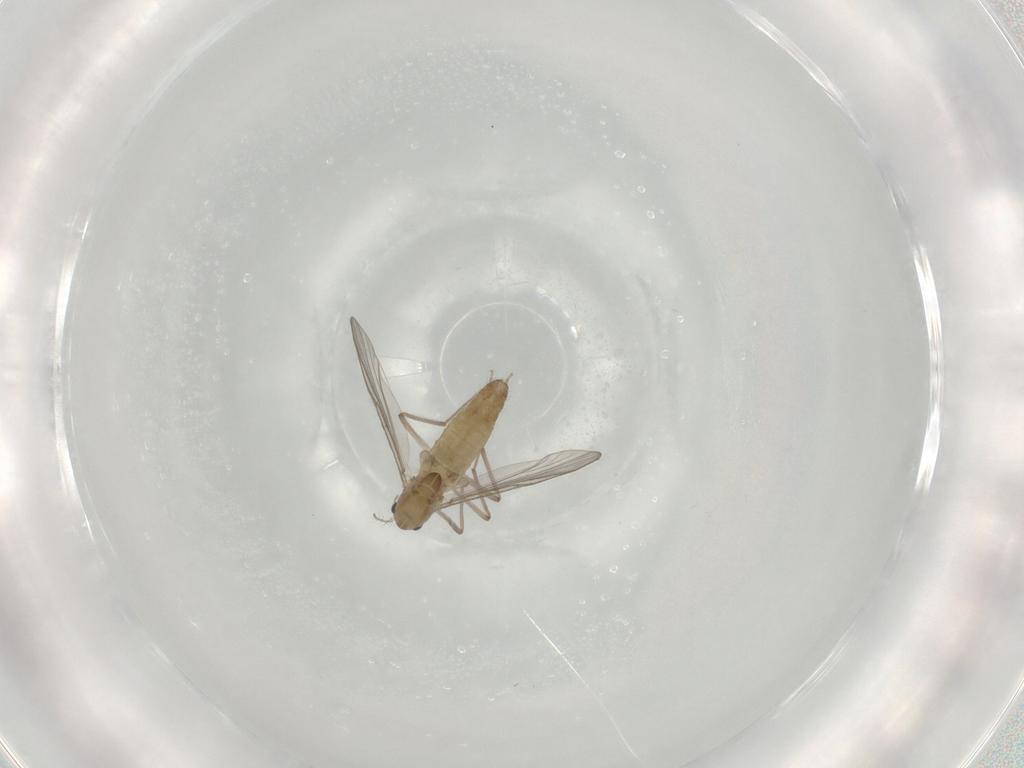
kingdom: Animalia
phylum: Arthropoda
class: Insecta
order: Diptera
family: Chironomidae
